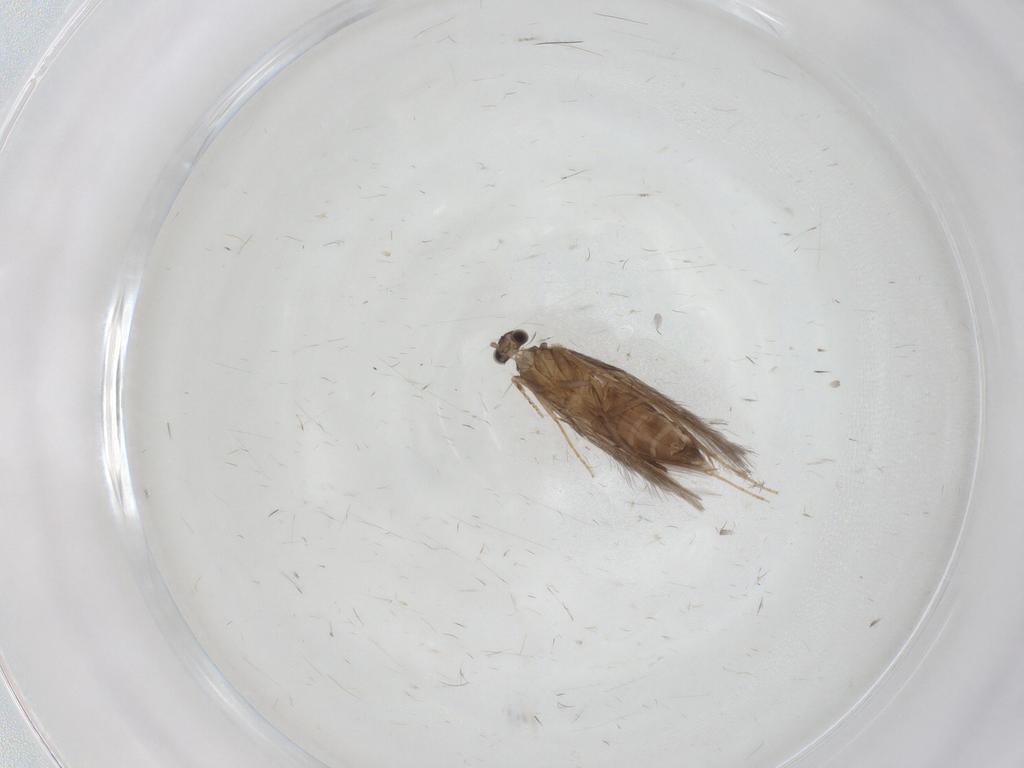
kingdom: Animalia
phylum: Arthropoda
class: Insecta
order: Trichoptera
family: Hydroptilidae
